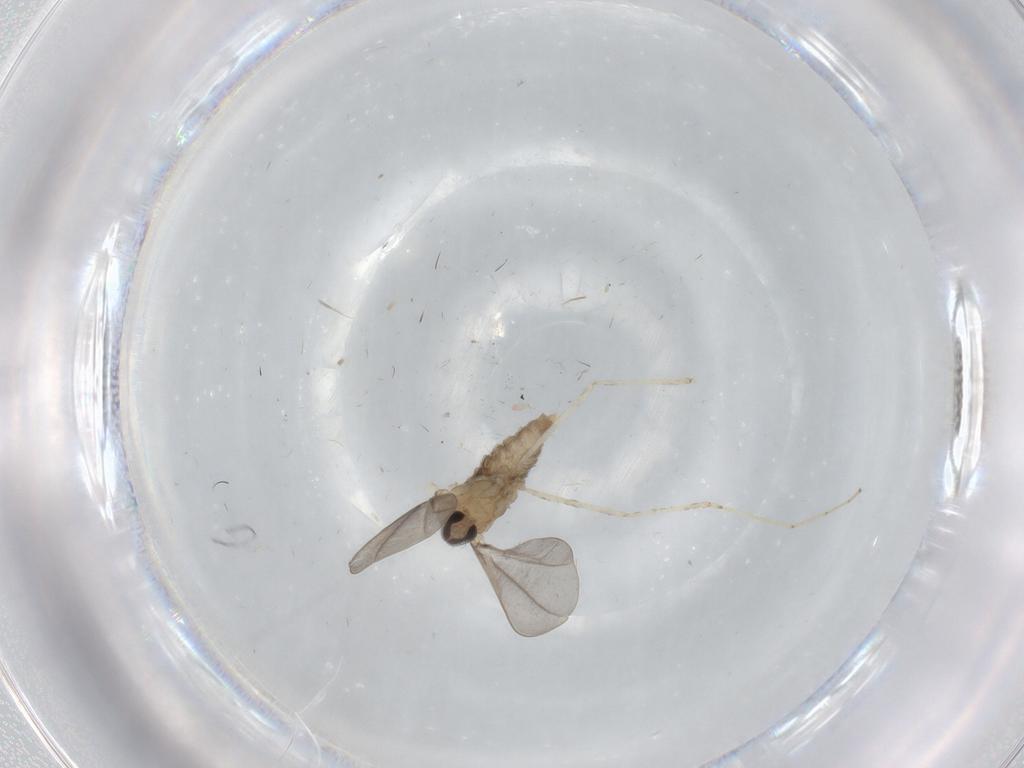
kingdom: Animalia
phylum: Arthropoda
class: Insecta
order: Diptera
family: Cecidomyiidae
